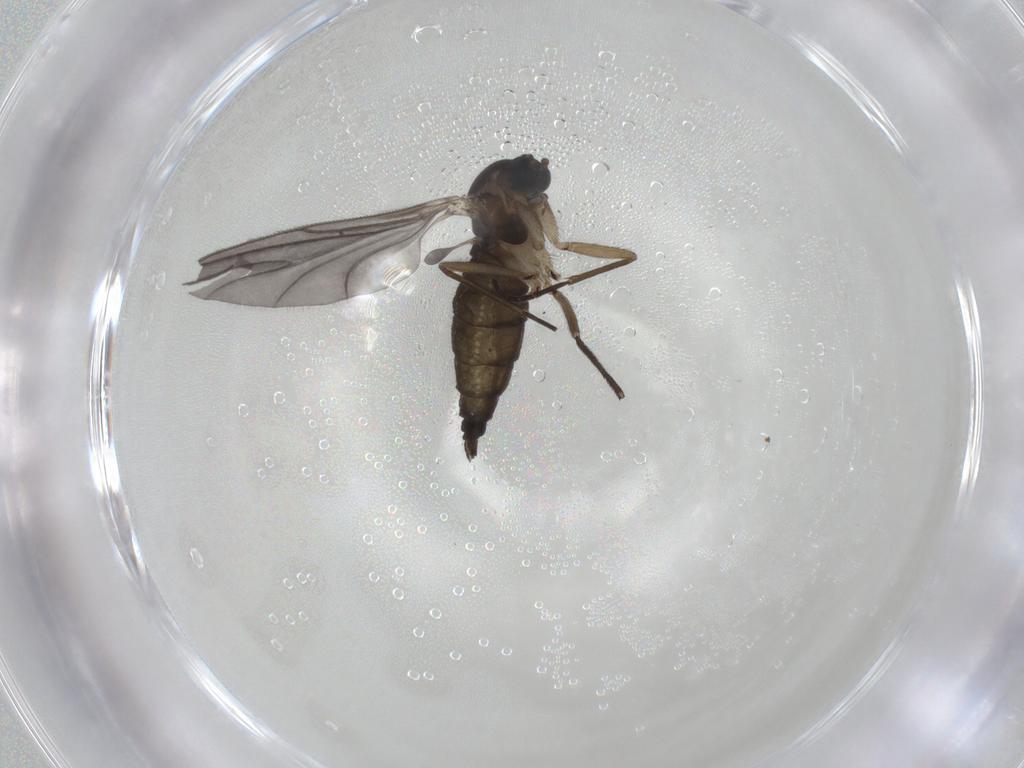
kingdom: Animalia
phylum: Arthropoda
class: Insecta
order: Diptera
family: Sciaridae
